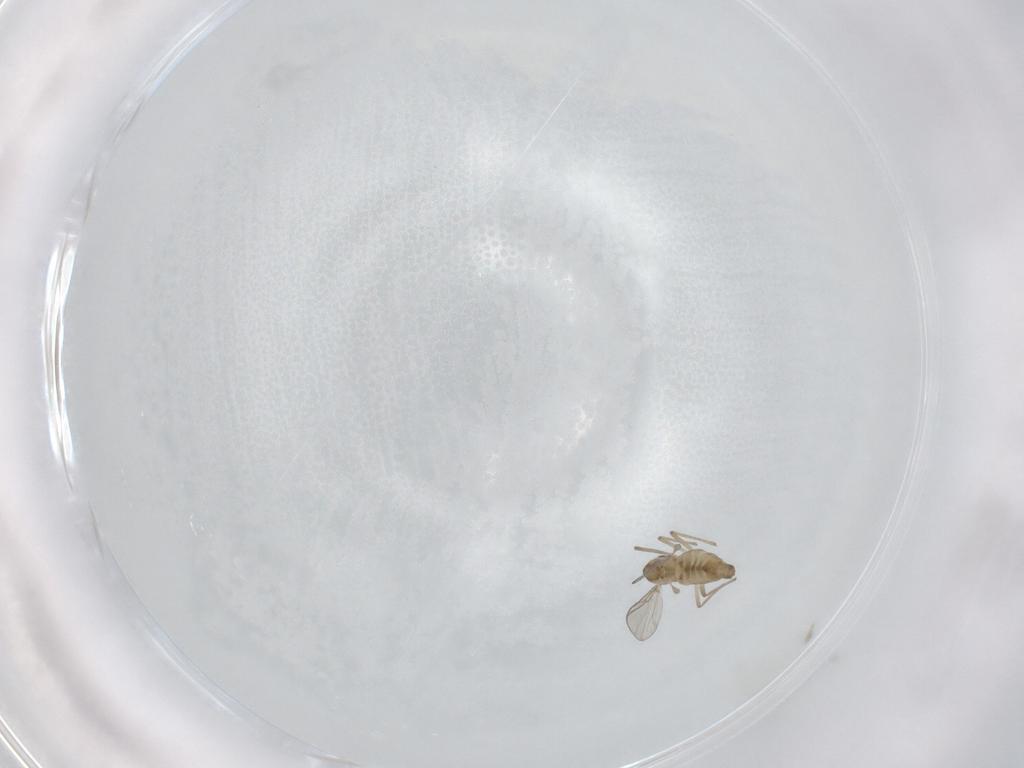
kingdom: Animalia
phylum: Arthropoda
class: Insecta
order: Diptera
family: Chironomidae
